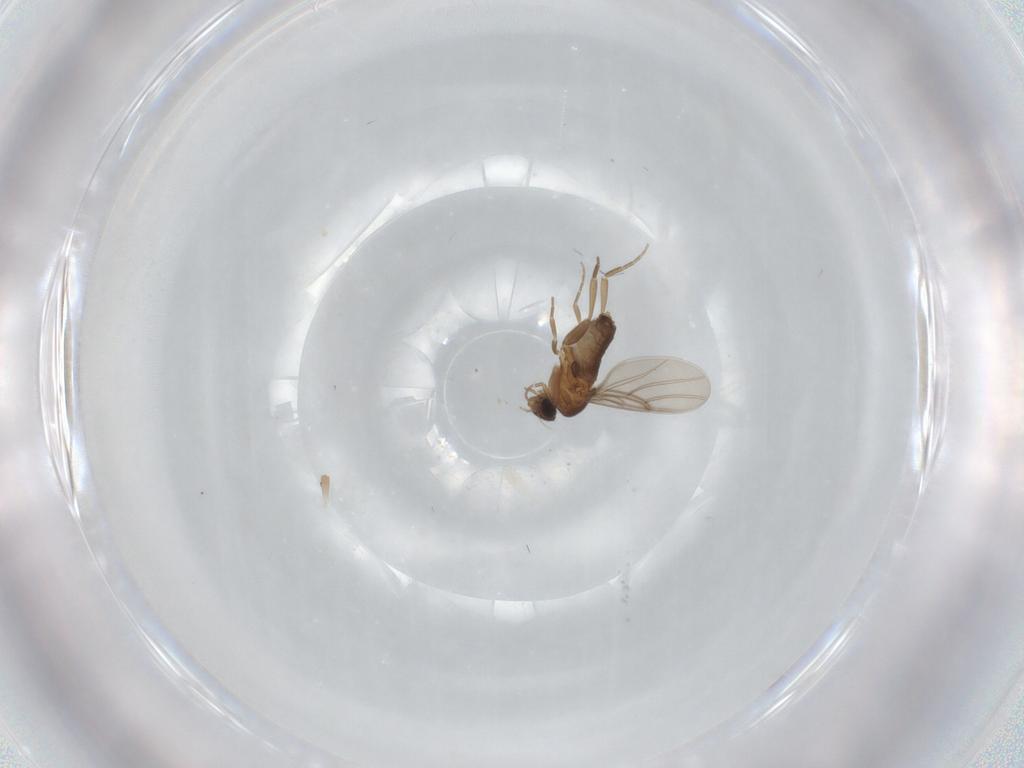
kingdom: Animalia
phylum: Arthropoda
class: Insecta
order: Diptera
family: Phoridae
